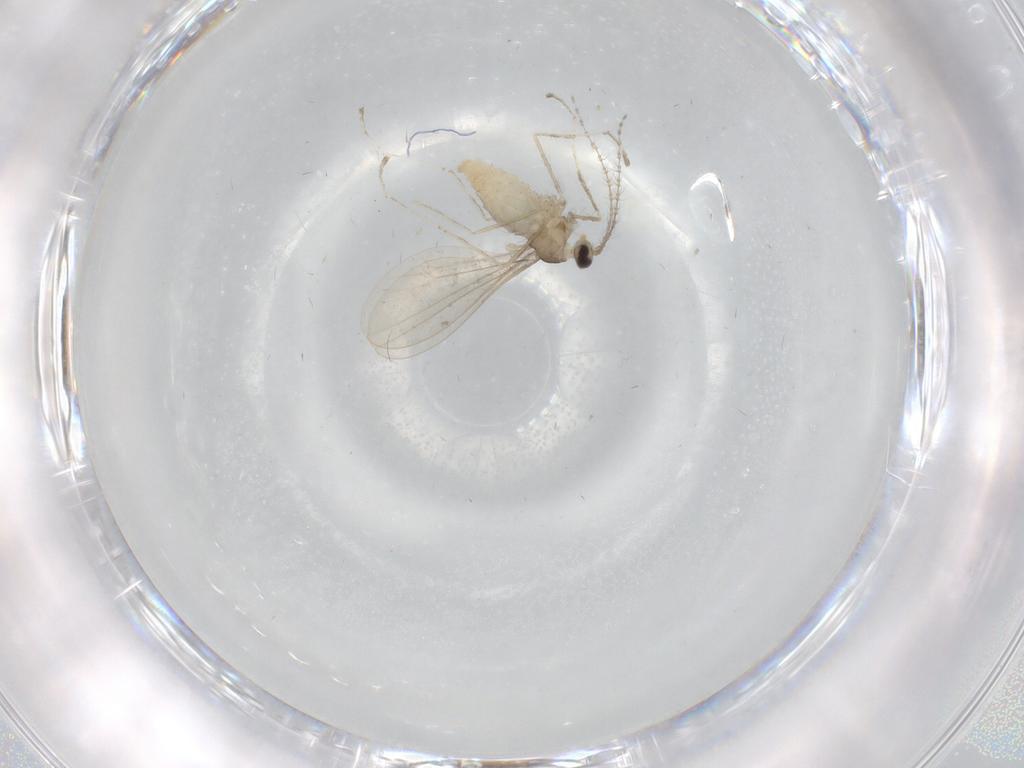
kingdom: Animalia
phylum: Arthropoda
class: Insecta
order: Diptera
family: Cecidomyiidae
